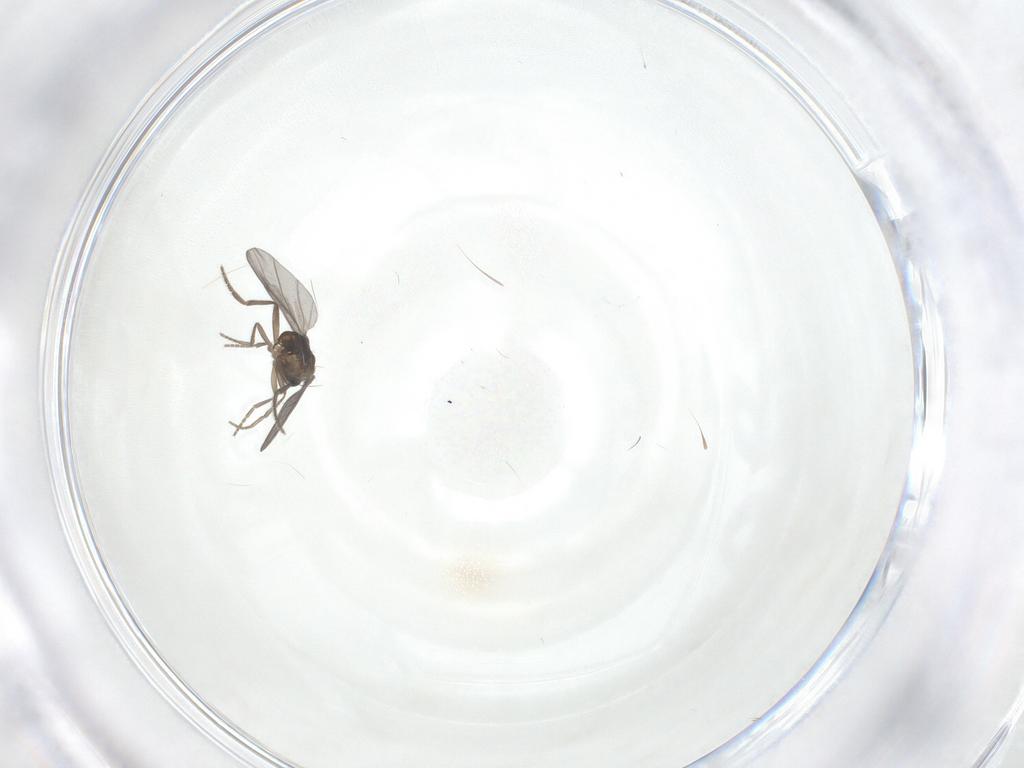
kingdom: Animalia
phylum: Arthropoda
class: Insecta
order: Diptera
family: Phoridae
